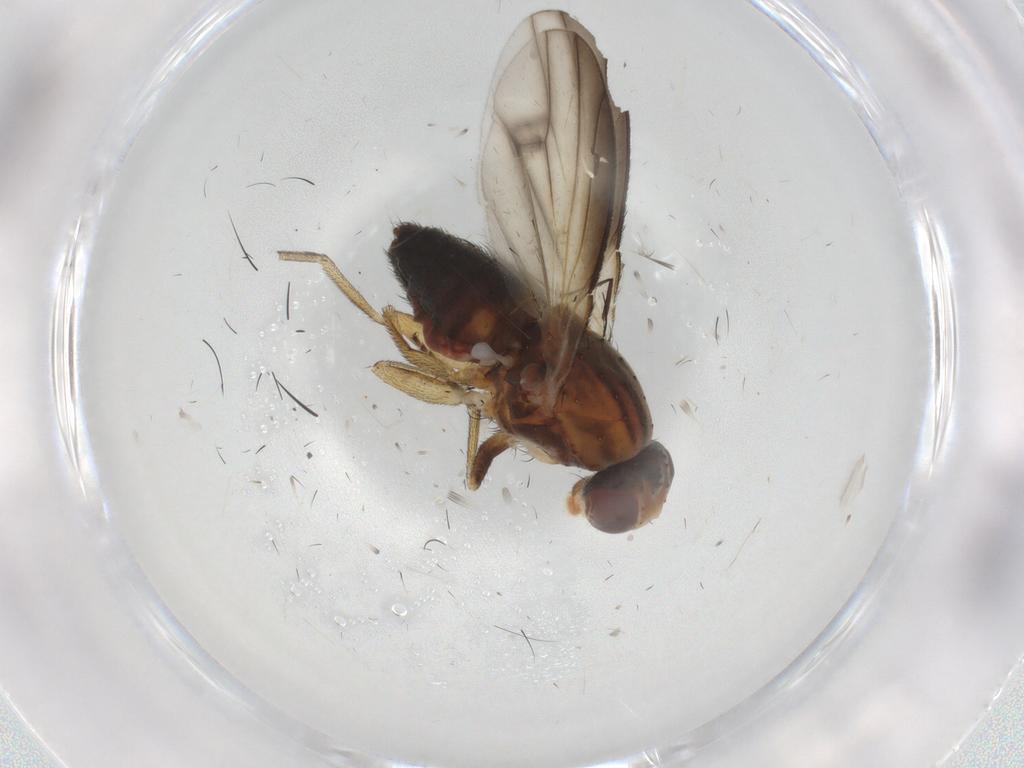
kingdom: Animalia
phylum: Arthropoda
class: Insecta
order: Diptera
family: Heleomyzidae
